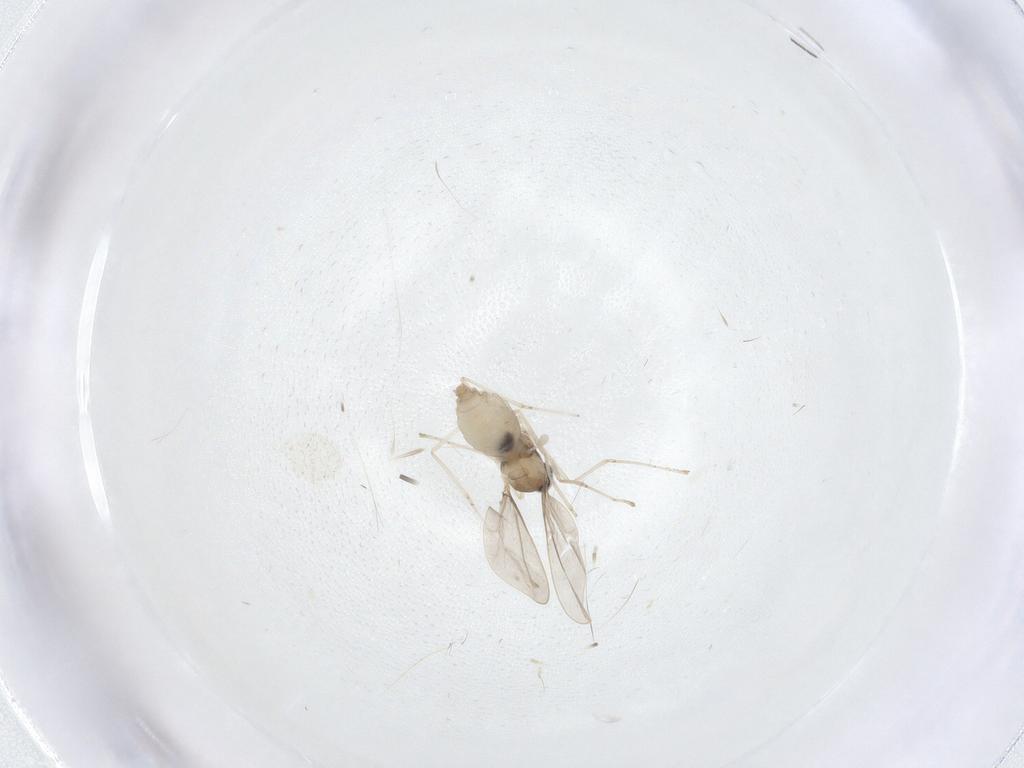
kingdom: Animalia
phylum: Arthropoda
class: Insecta
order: Diptera
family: Sciaridae
